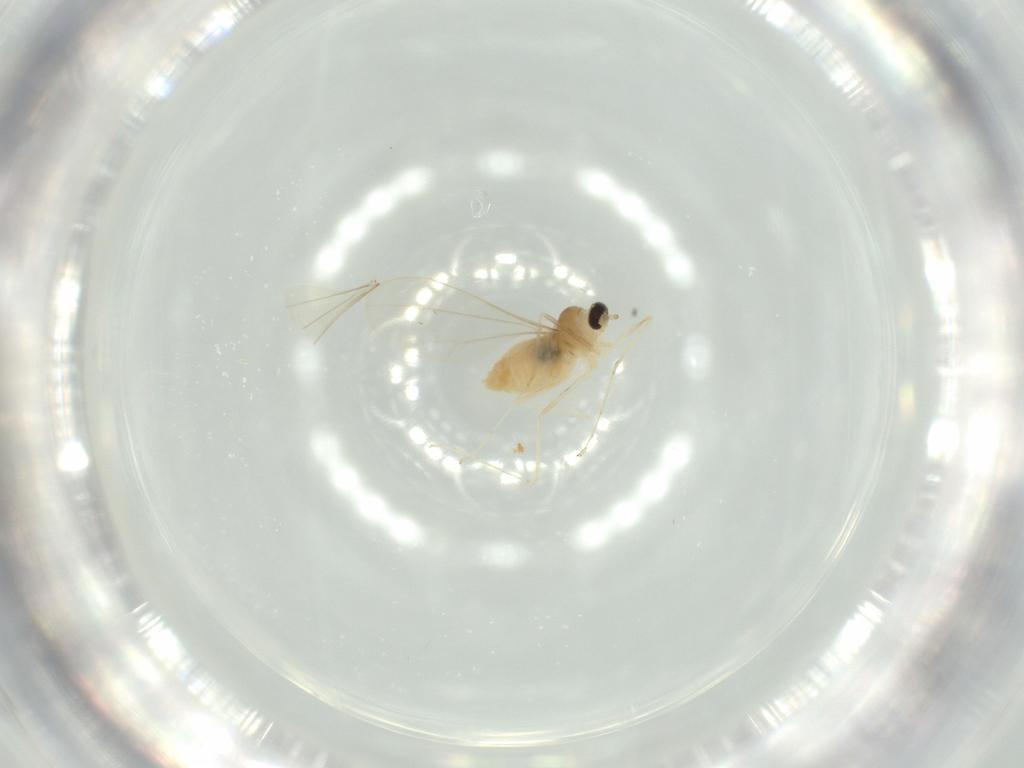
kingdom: Animalia
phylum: Arthropoda
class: Insecta
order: Diptera
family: Cecidomyiidae
